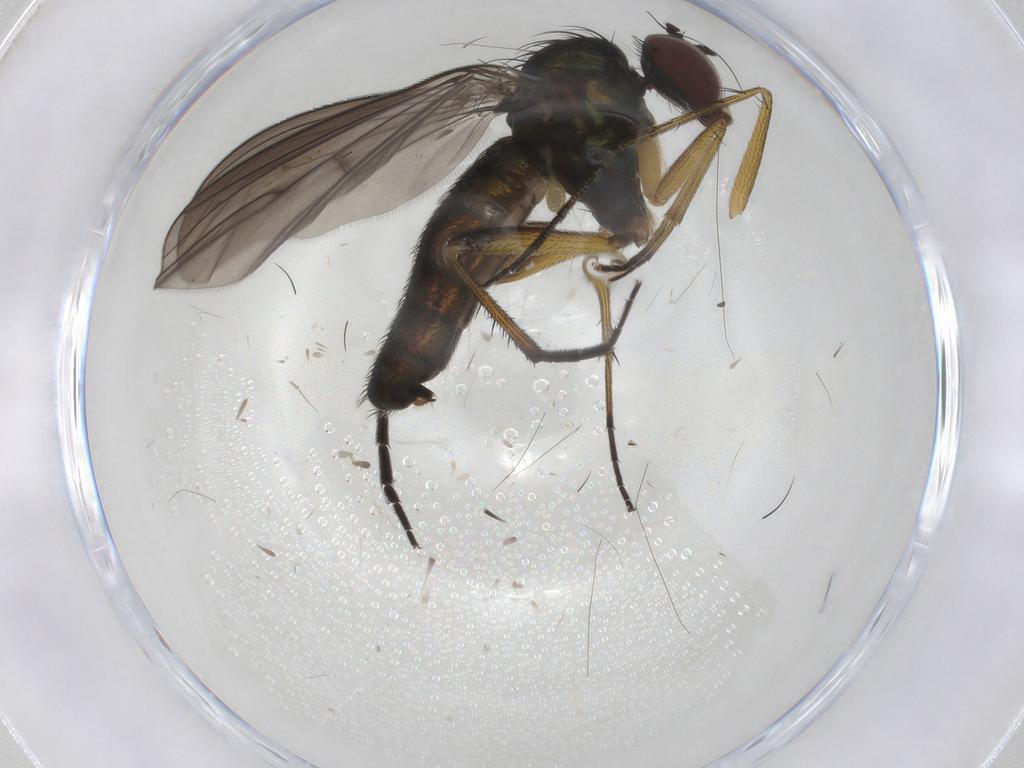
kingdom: Animalia
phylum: Arthropoda
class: Insecta
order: Diptera
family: Dolichopodidae
